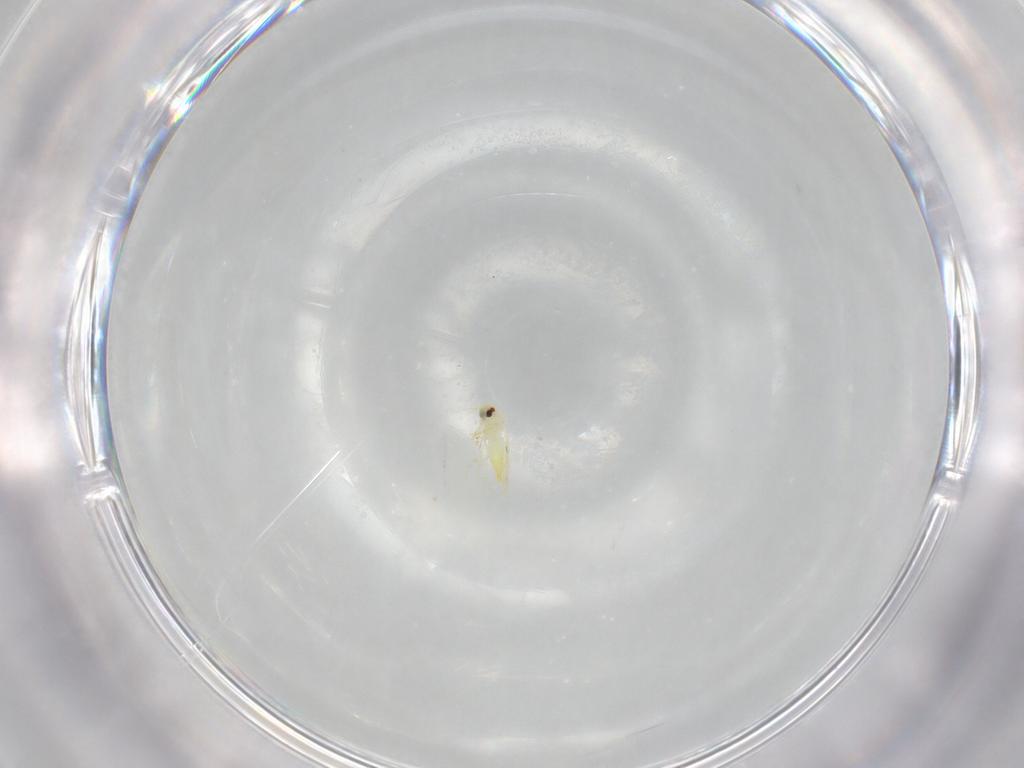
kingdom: Animalia
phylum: Arthropoda
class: Insecta
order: Hemiptera
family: Aleyrodidae
